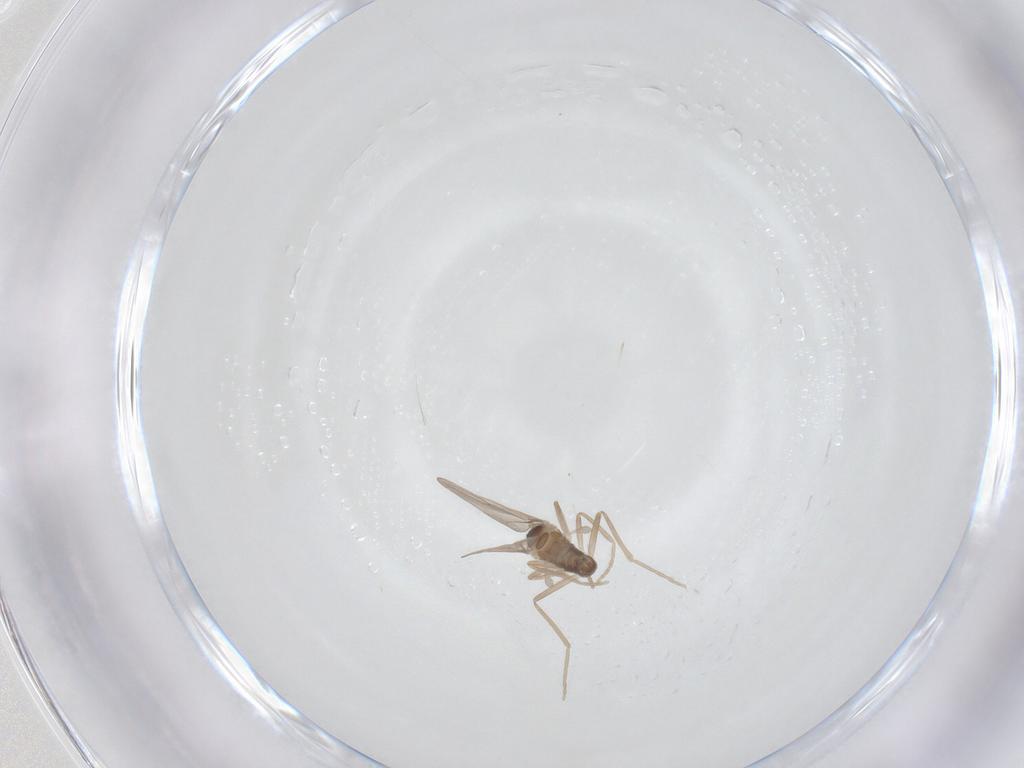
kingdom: Animalia
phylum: Arthropoda
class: Insecta
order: Diptera
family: Cecidomyiidae
